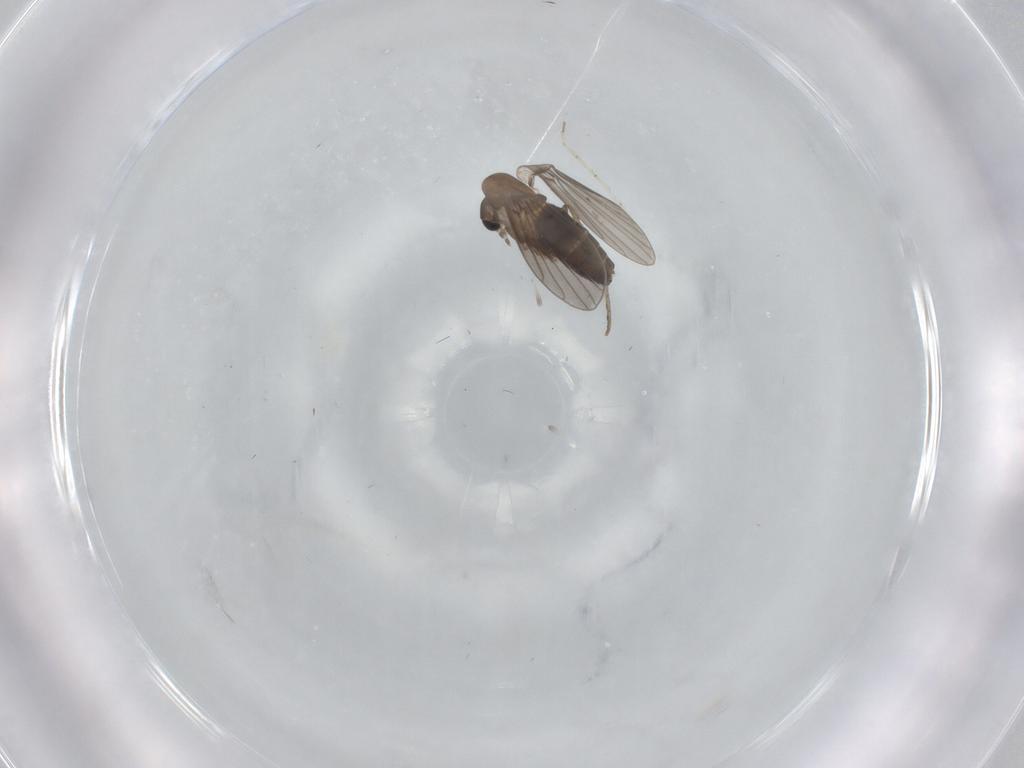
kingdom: Animalia
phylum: Arthropoda
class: Insecta
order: Diptera
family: Psychodidae
